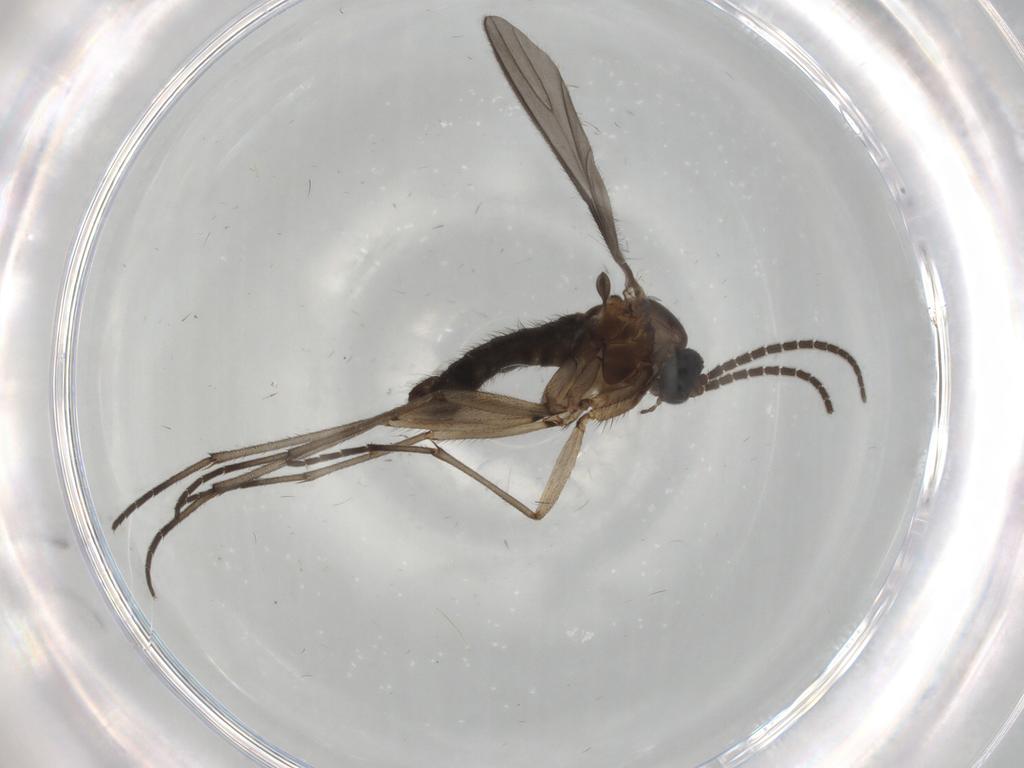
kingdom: Animalia
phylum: Arthropoda
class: Insecta
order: Diptera
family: Sciaridae
